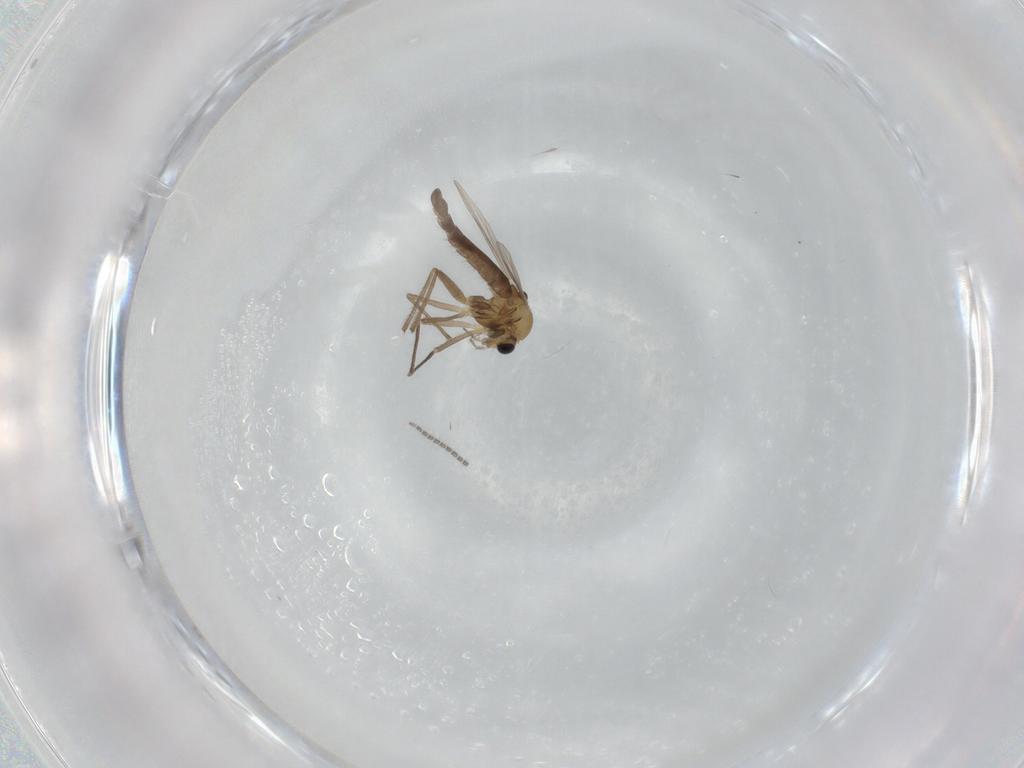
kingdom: Animalia
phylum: Arthropoda
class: Insecta
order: Diptera
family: Sciaridae
